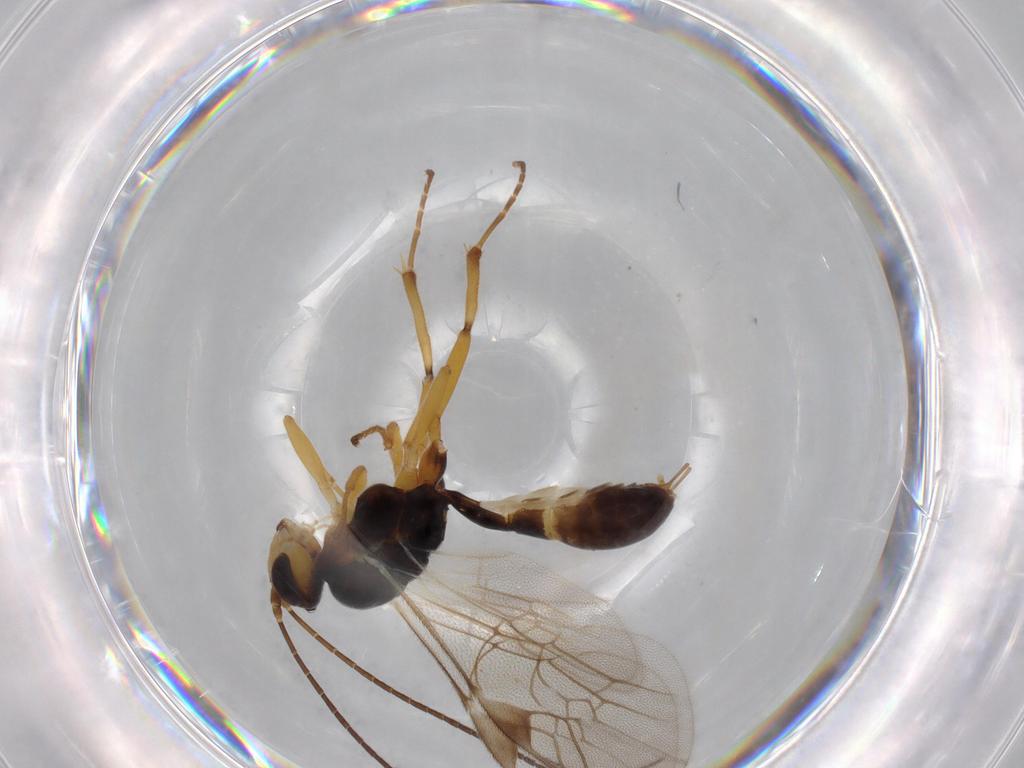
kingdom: Animalia
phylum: Arthropoda
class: Insecta
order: Hymenoptera
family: Ichneumonidae
